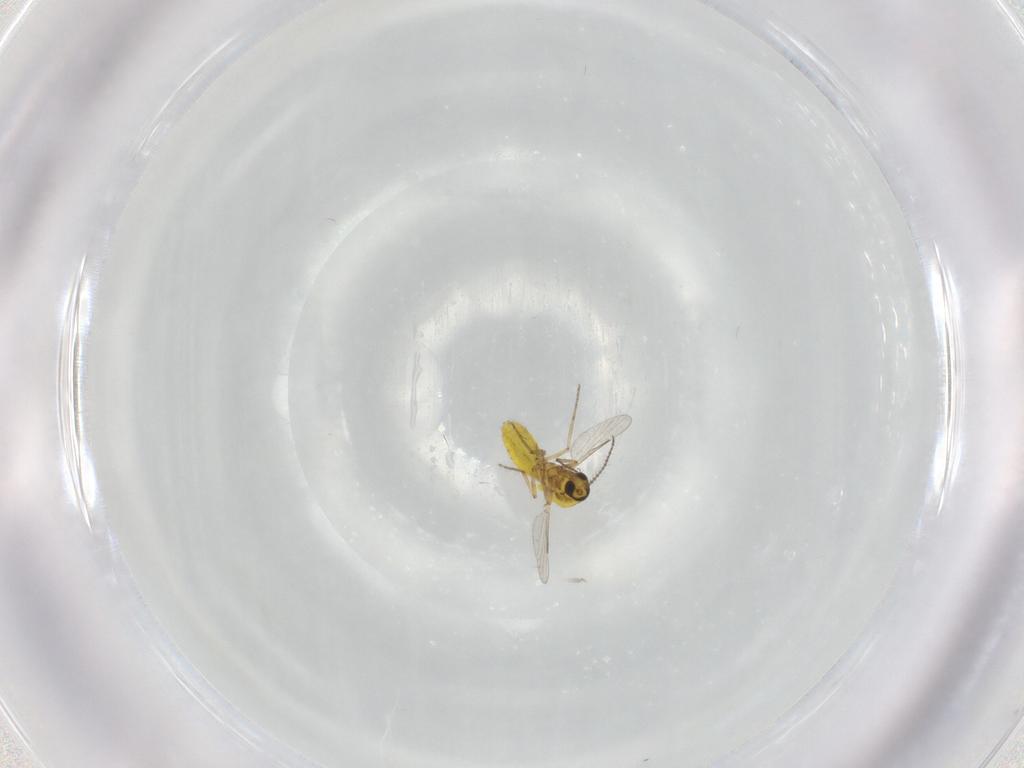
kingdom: Animalia
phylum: Arthropoda
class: Insecta
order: Diptera
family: Ceratopogonidae
